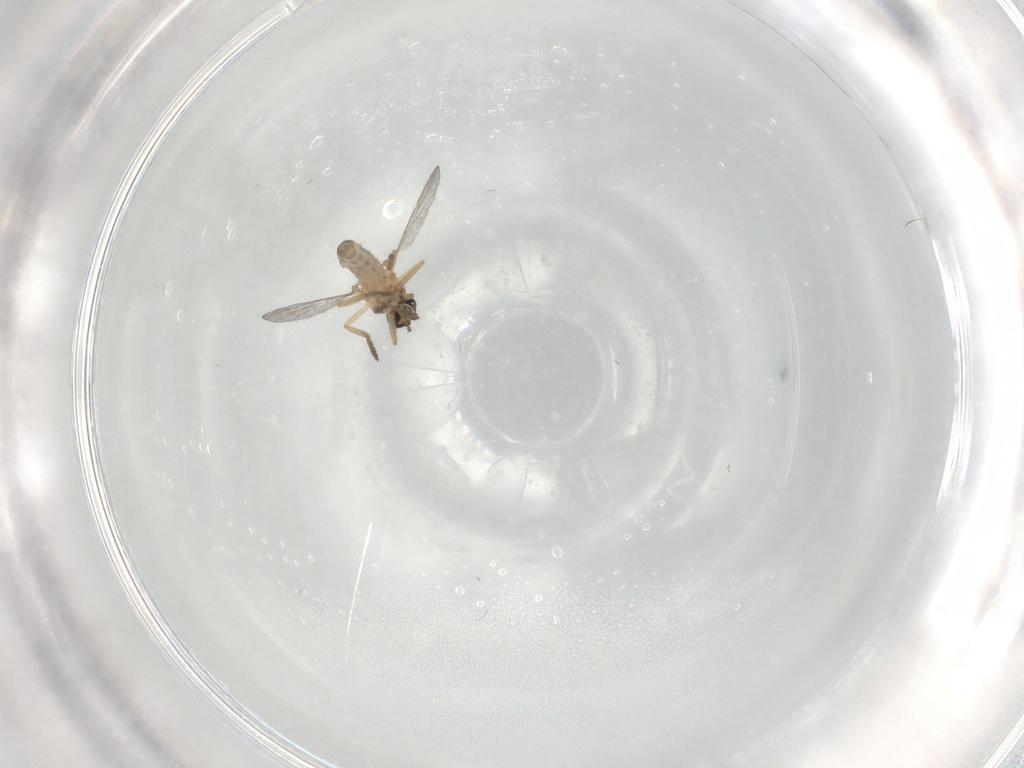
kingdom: Animalia
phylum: Arthropoda
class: Insecta
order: Diptera
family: Ceratopogonidae
